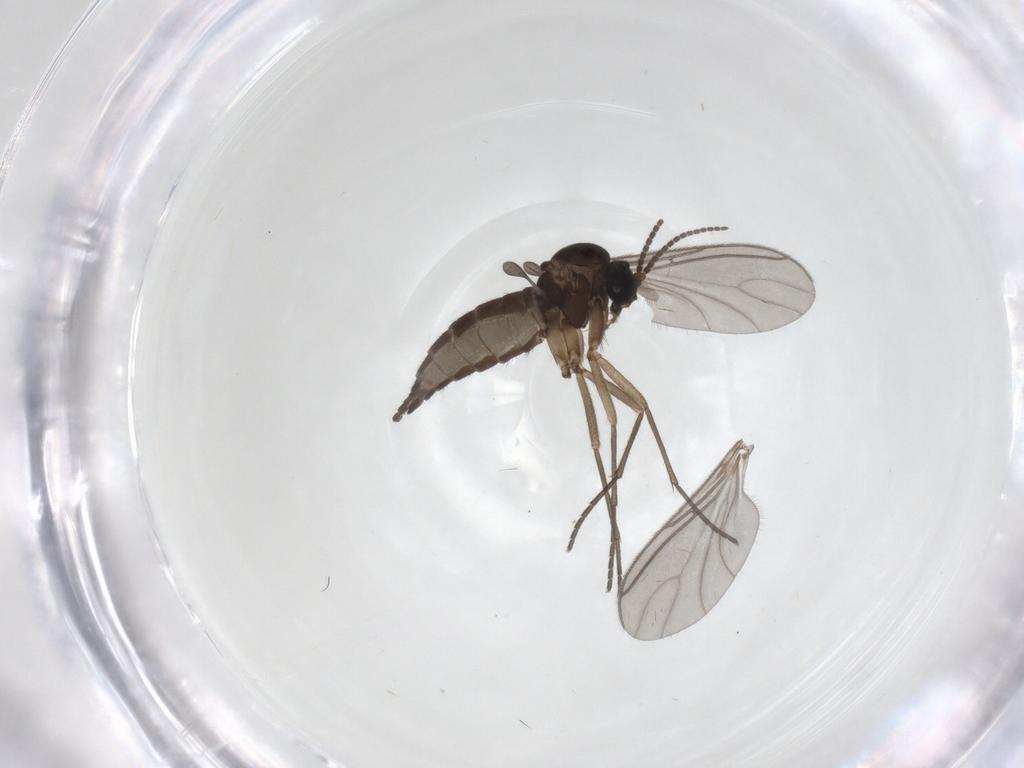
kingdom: Animalia
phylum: Arthropoda
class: Insecta
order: Diptera
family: Sciaridae
